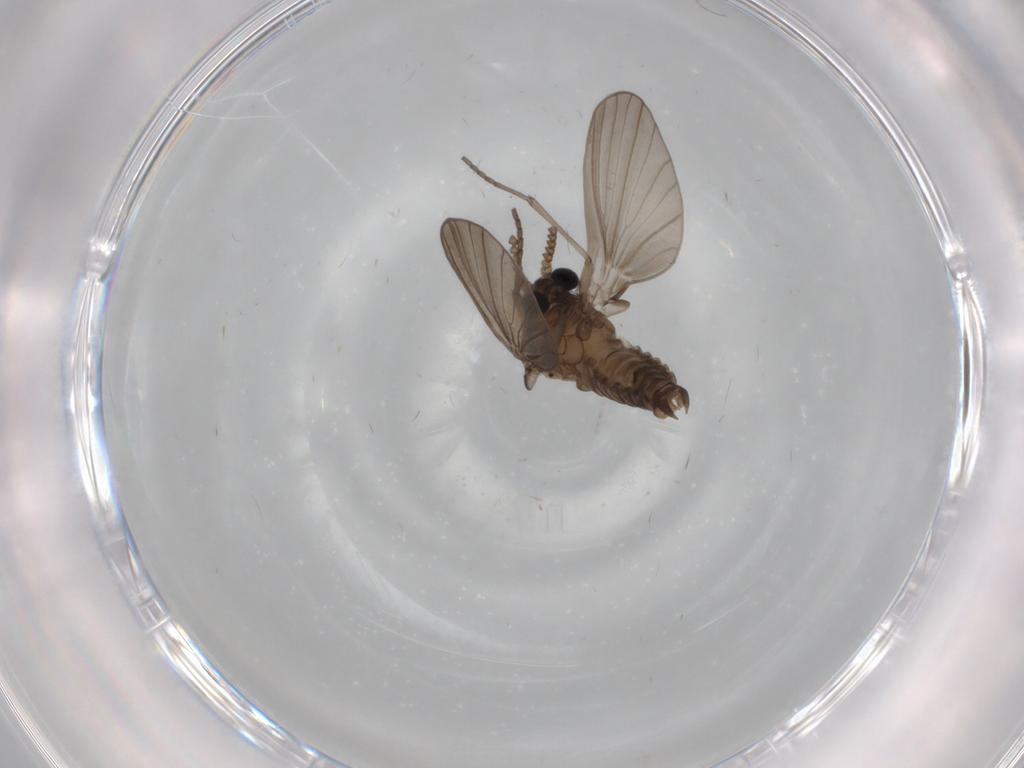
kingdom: Animalia
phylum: Arthropoda
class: Insecta
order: Diptera
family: Psychodidae
